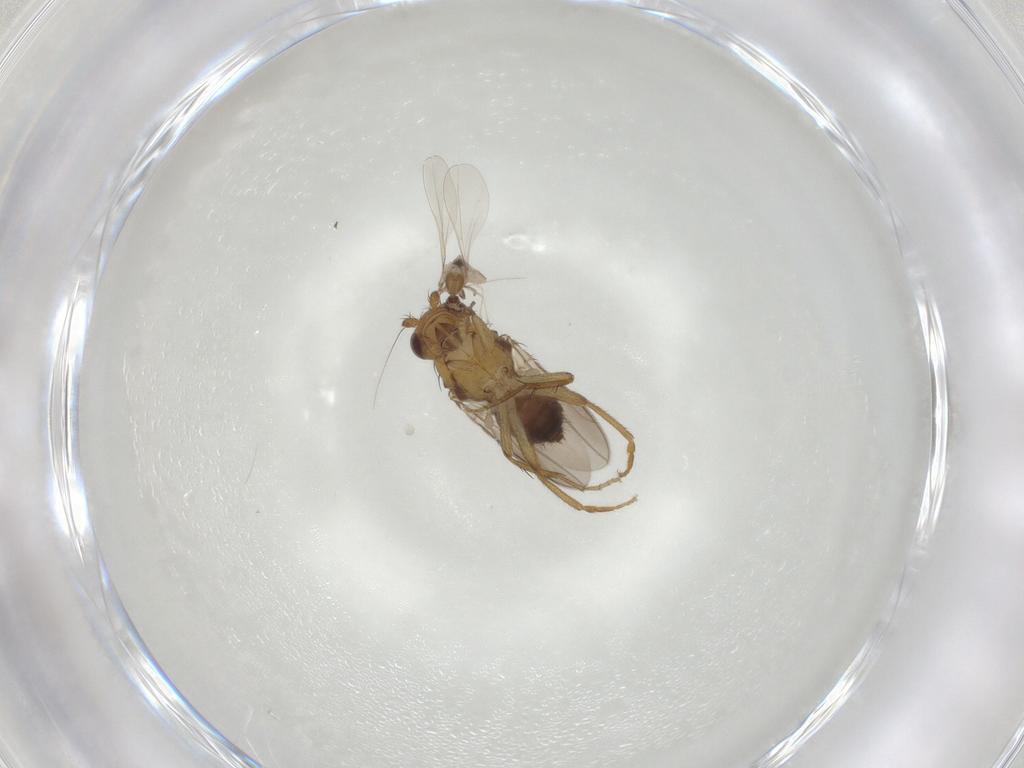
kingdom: Animalia
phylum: Arthropoda
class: Insecta
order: Diptera
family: Sphaeroceridae
